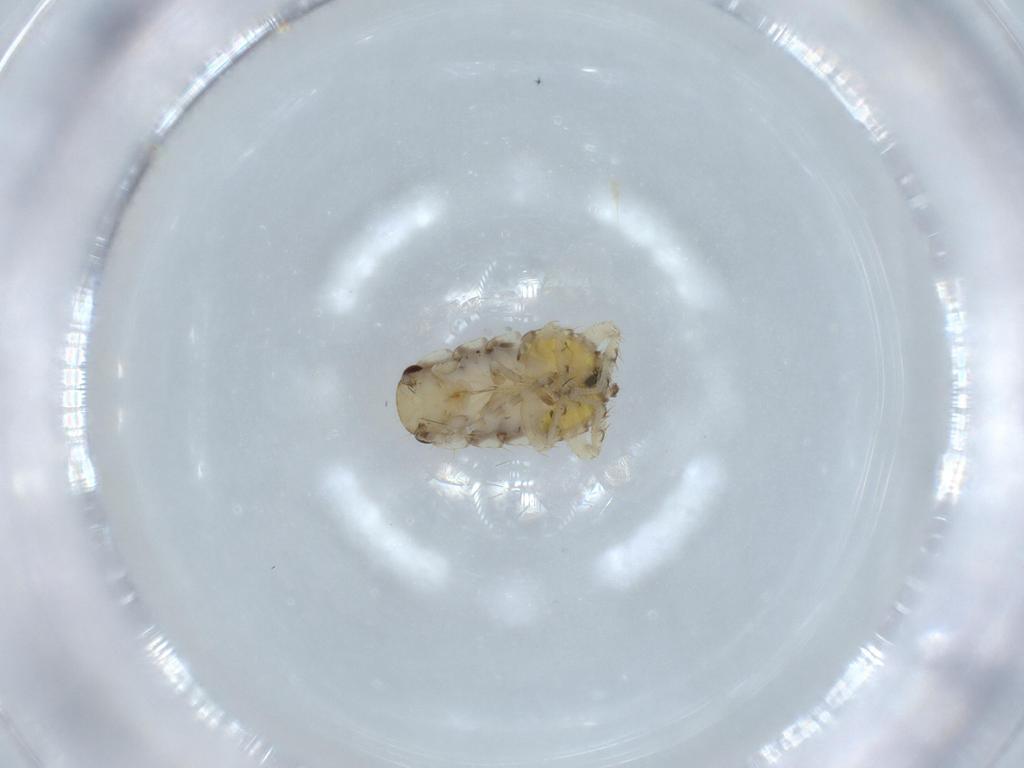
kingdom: Animalia
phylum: Arthropoda
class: Insecta
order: Blattodea
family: Ectobiidae
